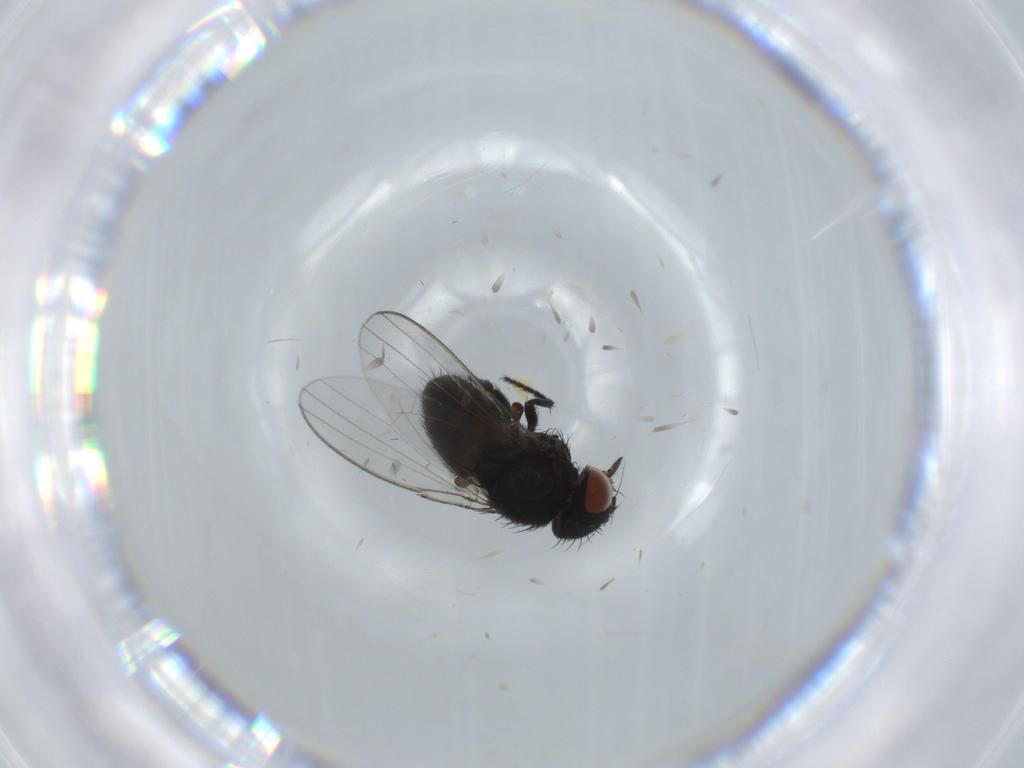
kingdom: Animalia
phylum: Arthropoda
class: Insecta
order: Diptera
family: Milichiidae
